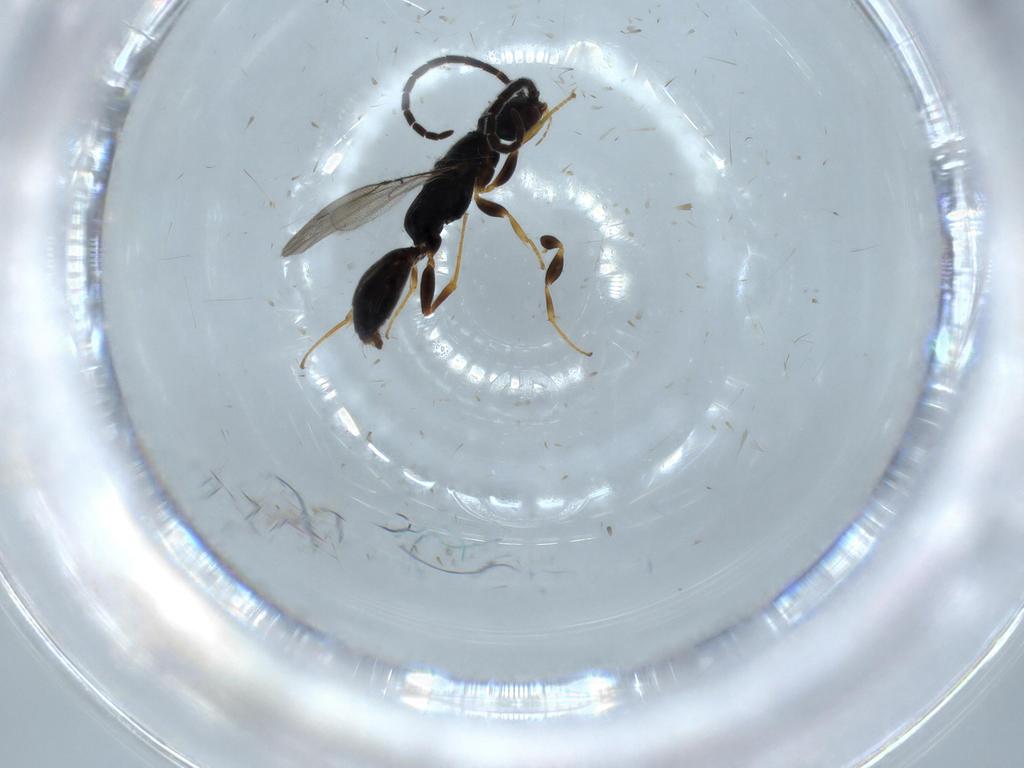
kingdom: Animalia
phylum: Arthropoda
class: Insecta
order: Hymenoptera
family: Bethylidae
